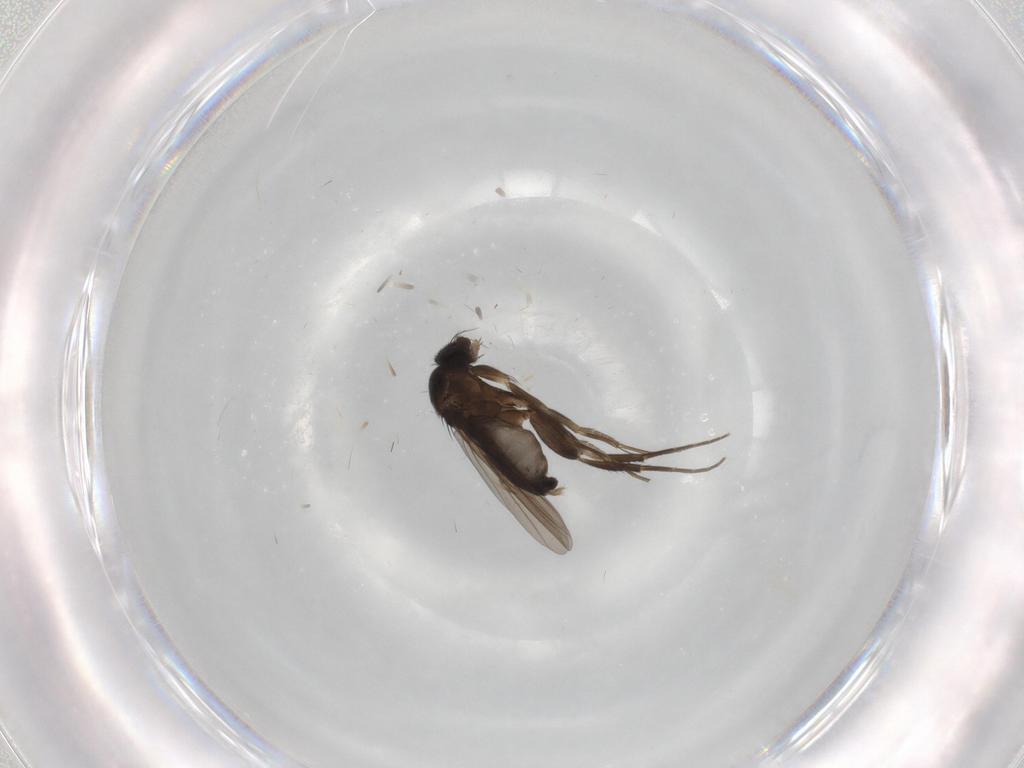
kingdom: Animalia
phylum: Arthropoda
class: Insecta
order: Diptera
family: Phoridae
